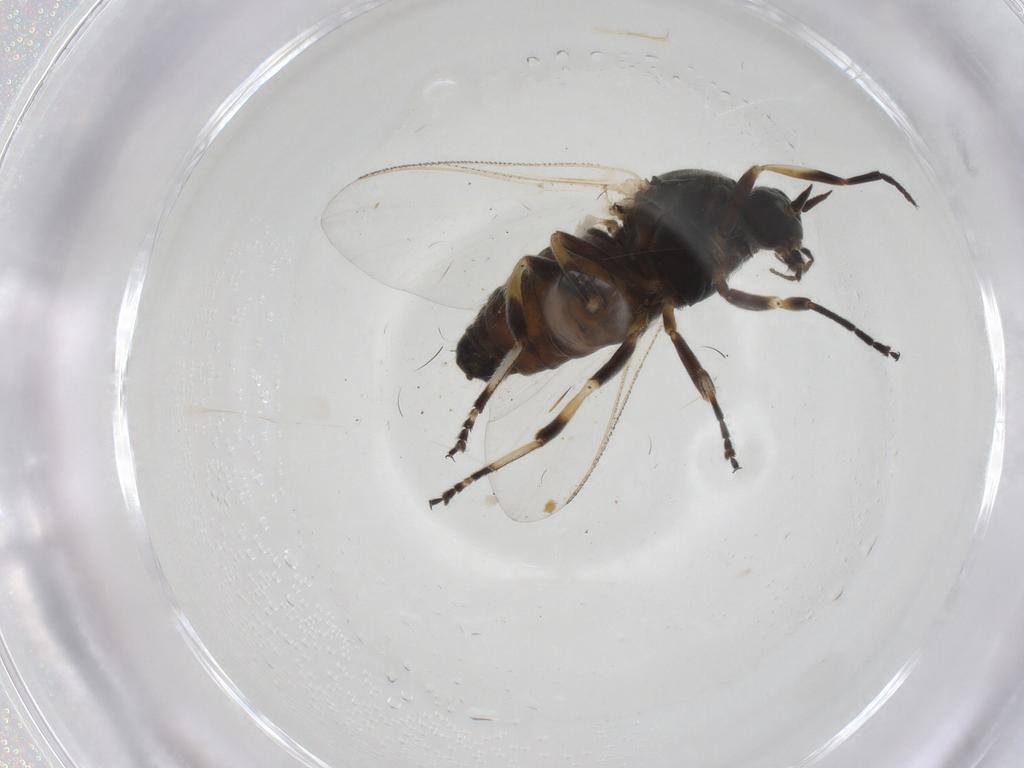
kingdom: Animalia
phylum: Arthropoda
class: Insecta
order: Diptera
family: Simuliidae
